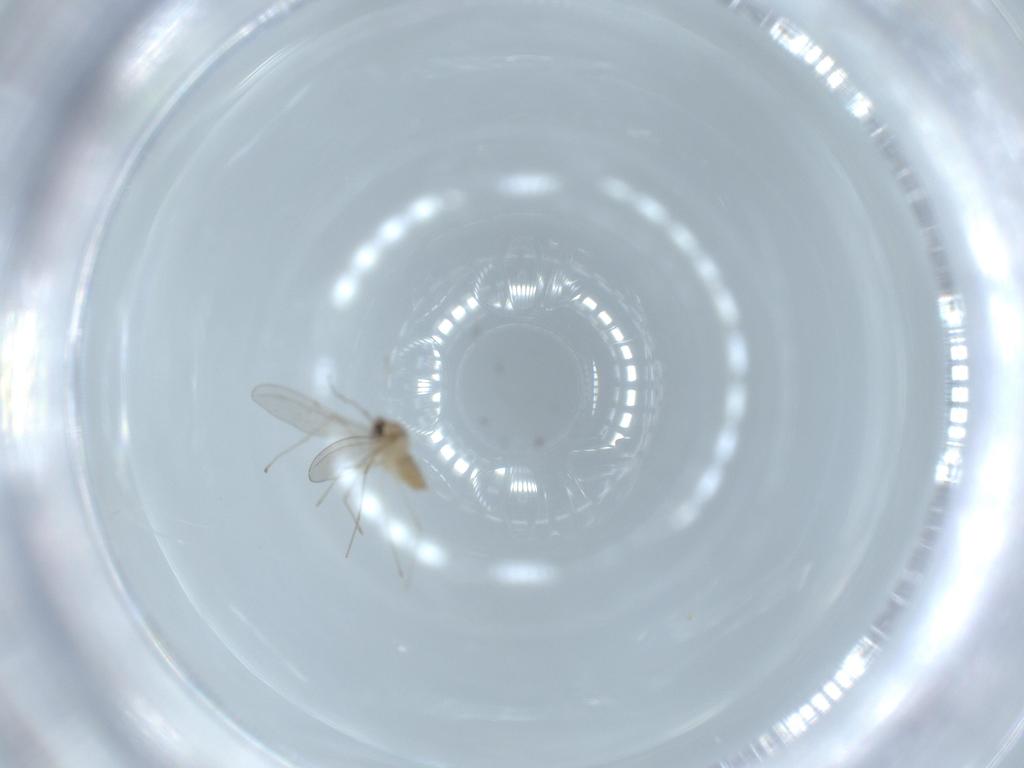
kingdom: Animalia
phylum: Arthropoda
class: Insecta
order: Diptera
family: Cecidomyiidae
